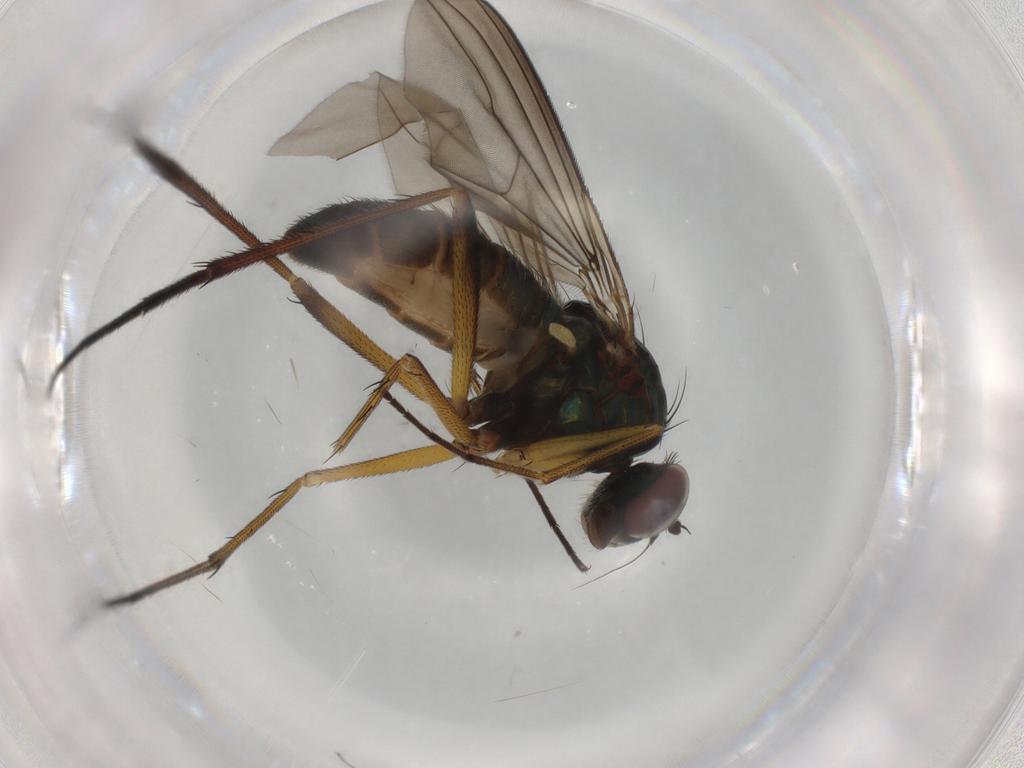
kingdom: Animalia
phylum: Arthropoda
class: Insecta
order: Diptera
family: Dolichopodidae
